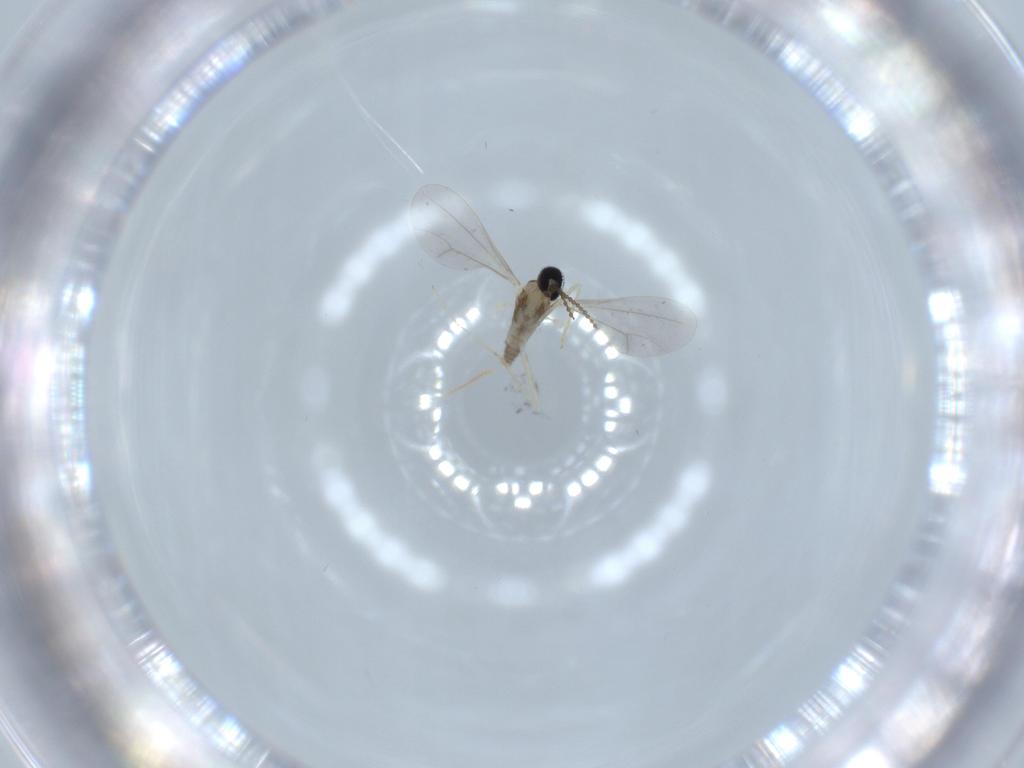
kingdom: Animalia
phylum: Arthropoda
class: Insecta
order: Diptera
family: Cecidomyiidae
